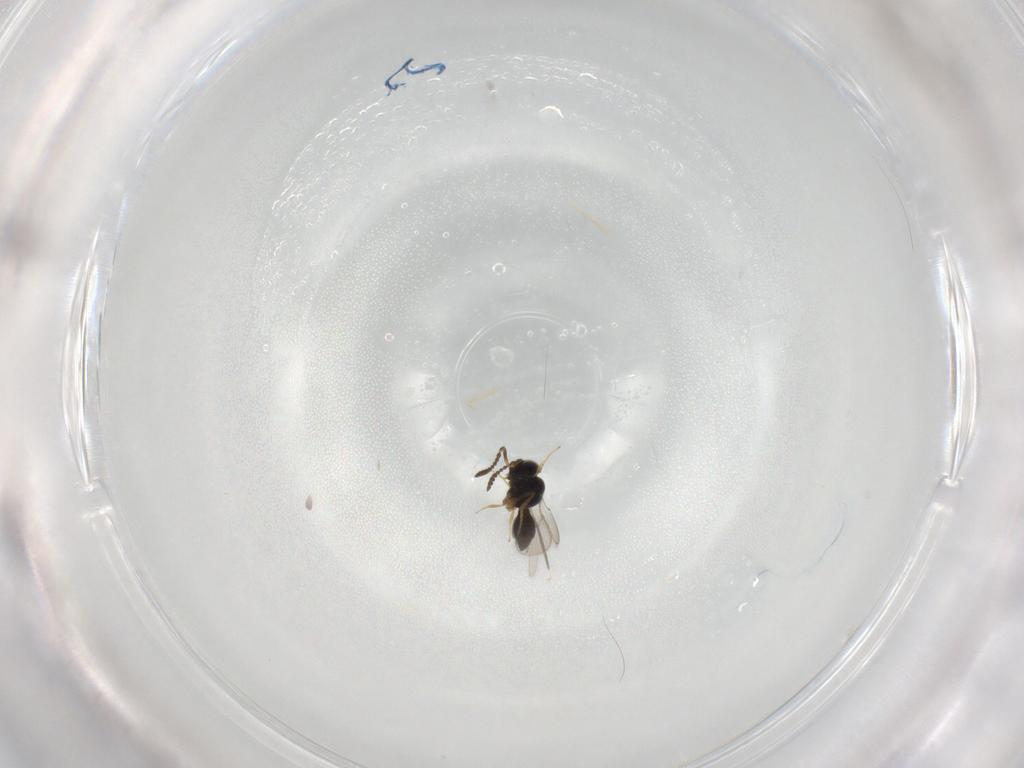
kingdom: Animalia
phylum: Arthropoda
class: Insecta
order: Hymenoptera
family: Scelionidae
